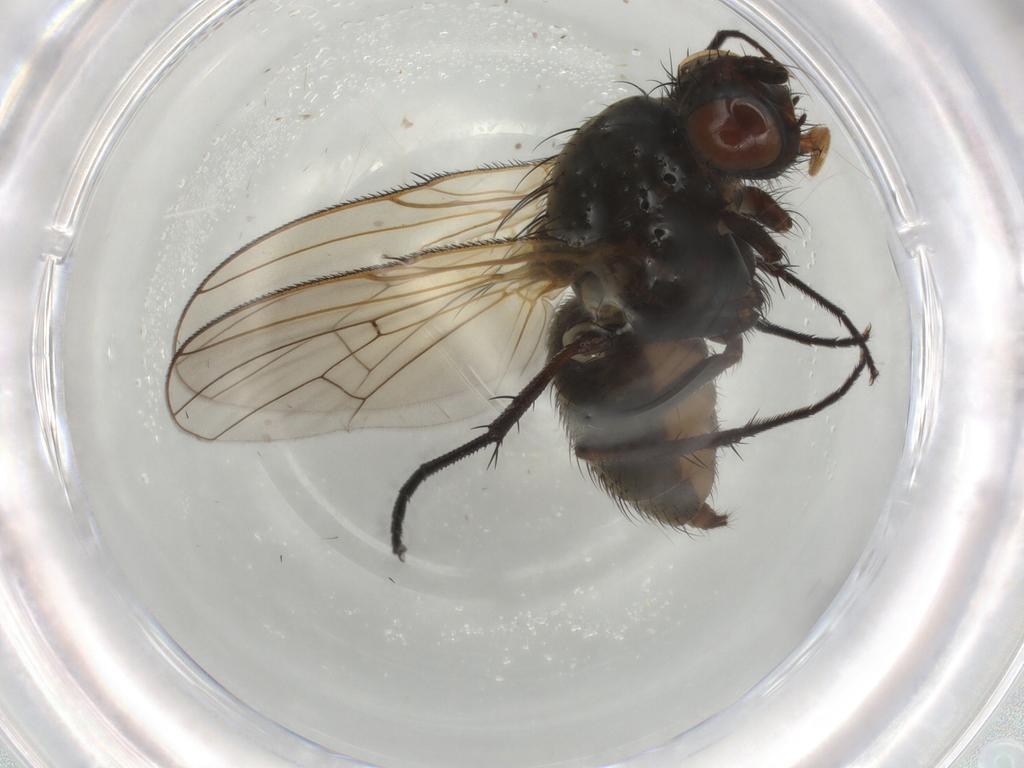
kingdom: Animalia
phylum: Arthropoda
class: Insecta
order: Diptera
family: Anthomyiidae
